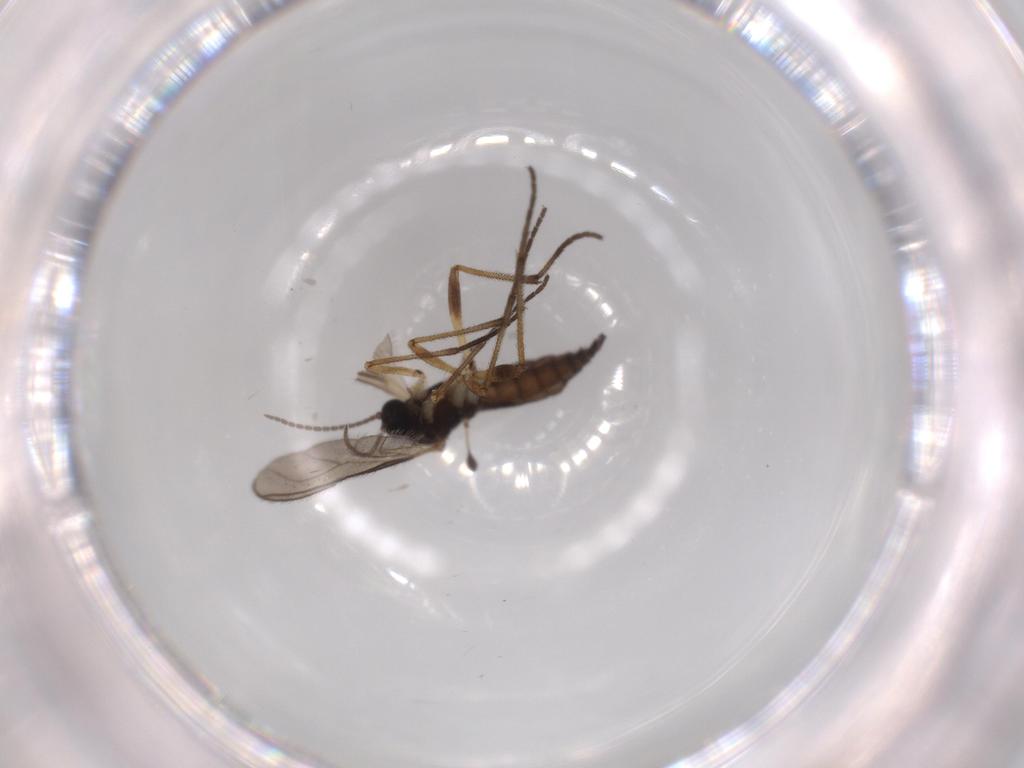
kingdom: Animalia
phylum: Arthropoda
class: Insecta
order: Diptera
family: Sciaridae
